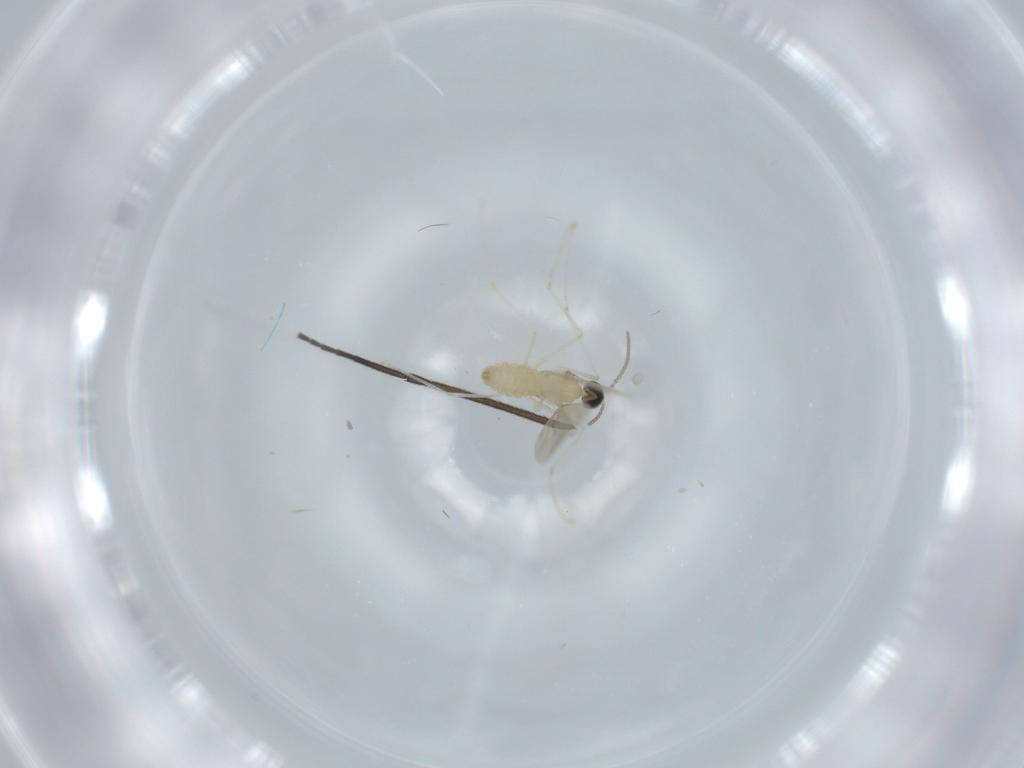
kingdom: Animalia
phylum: Arthropoda
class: Insecta
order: Diptera
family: Cecidomyiidae
